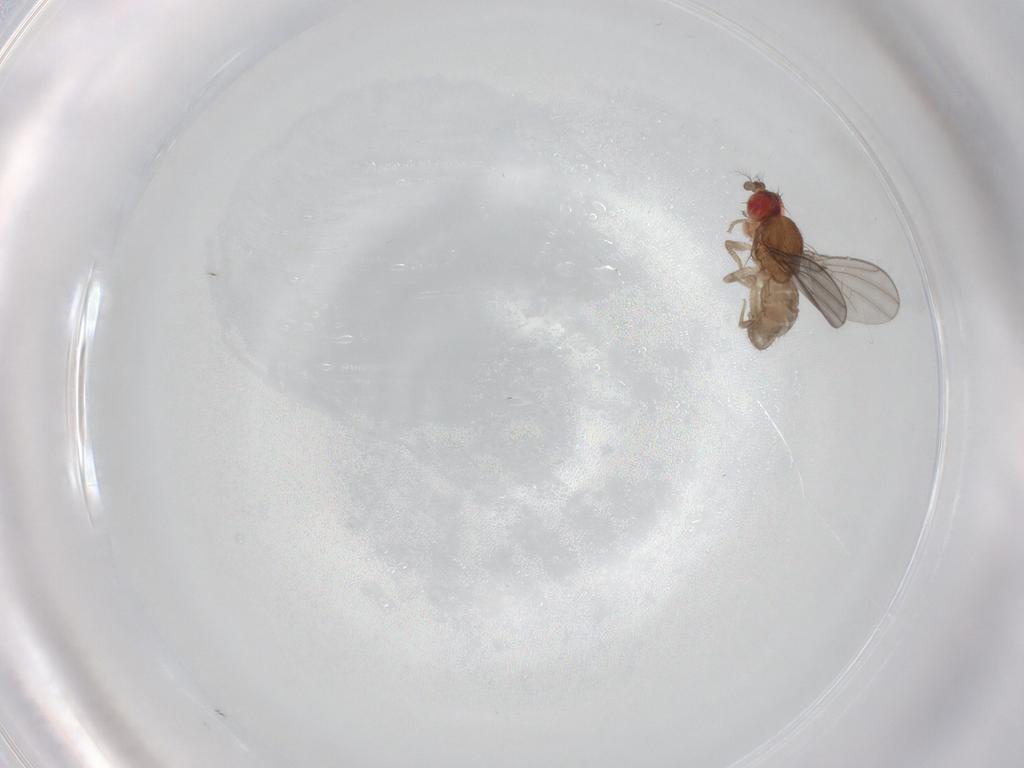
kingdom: Animalia
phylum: Arthropoda
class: Insecta
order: Diptera
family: Drosophilidae
